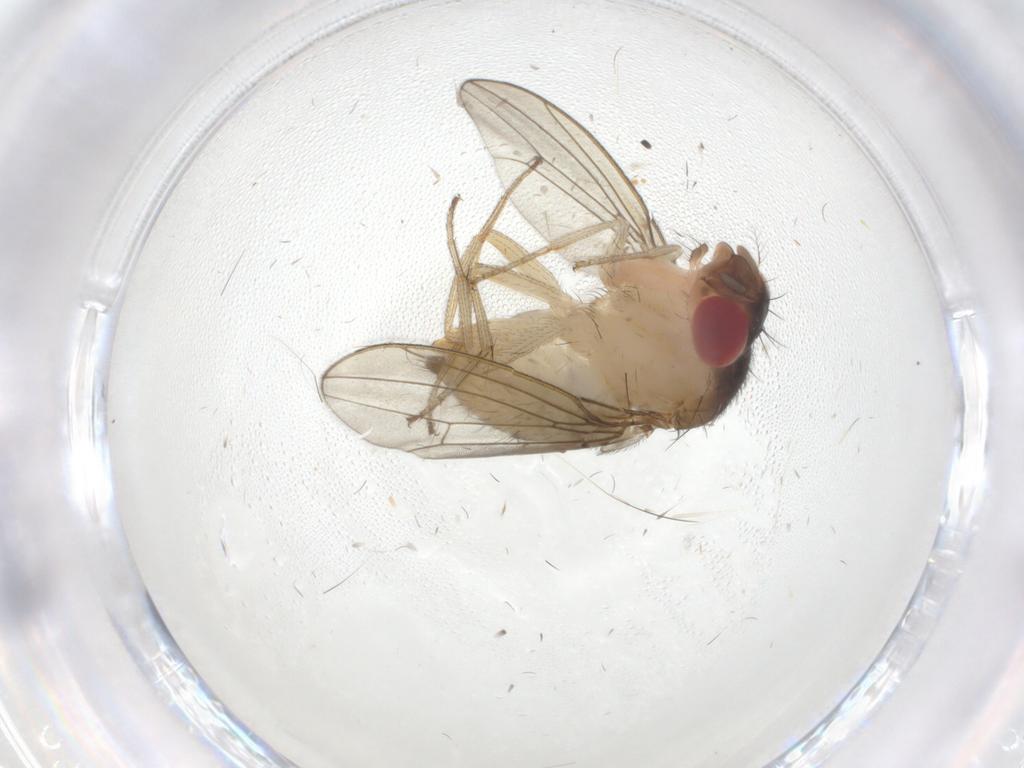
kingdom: Animalia
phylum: Arthropoda
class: Insecta
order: Diptera
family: Drosophilidae
